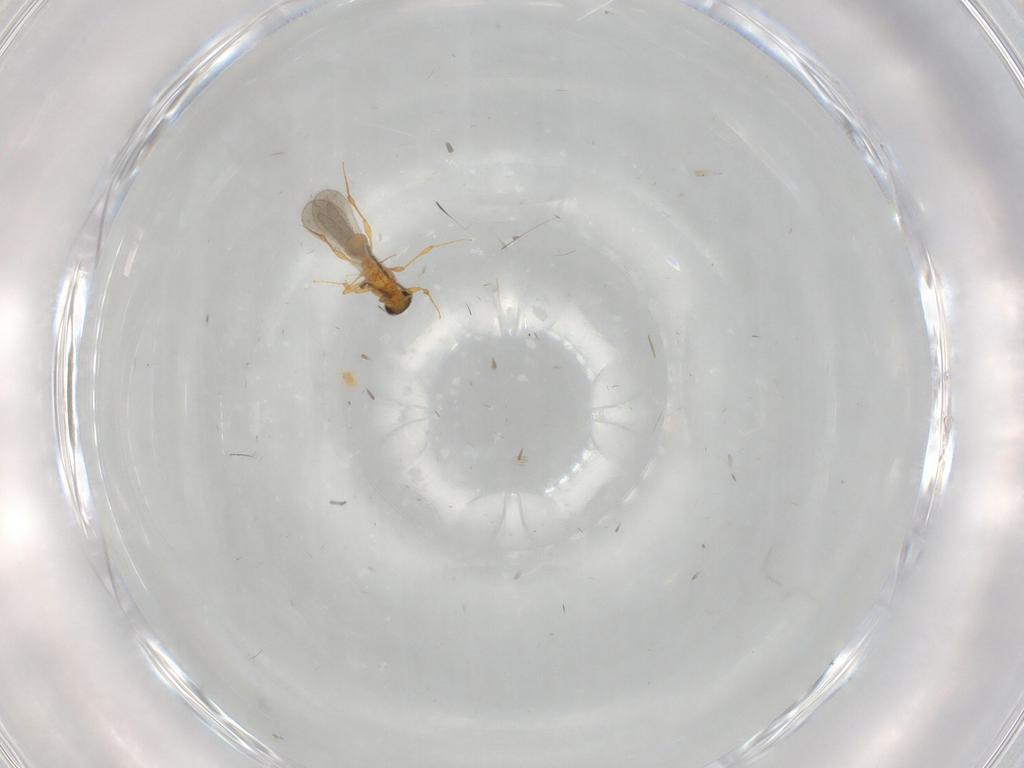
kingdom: Animalia
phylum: Arthropoda
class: Insecta
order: Hymenoptera
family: Platygastridae
